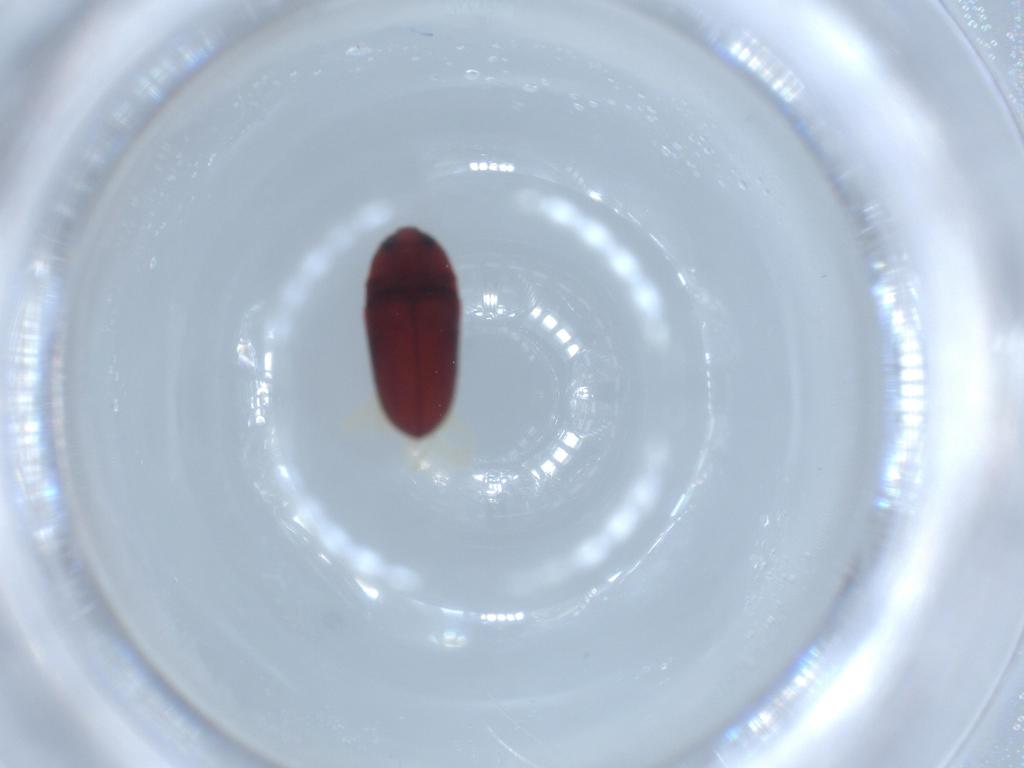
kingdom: Animalia
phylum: Arthropoda
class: Insecta
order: Coleoptera
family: Throscidae
